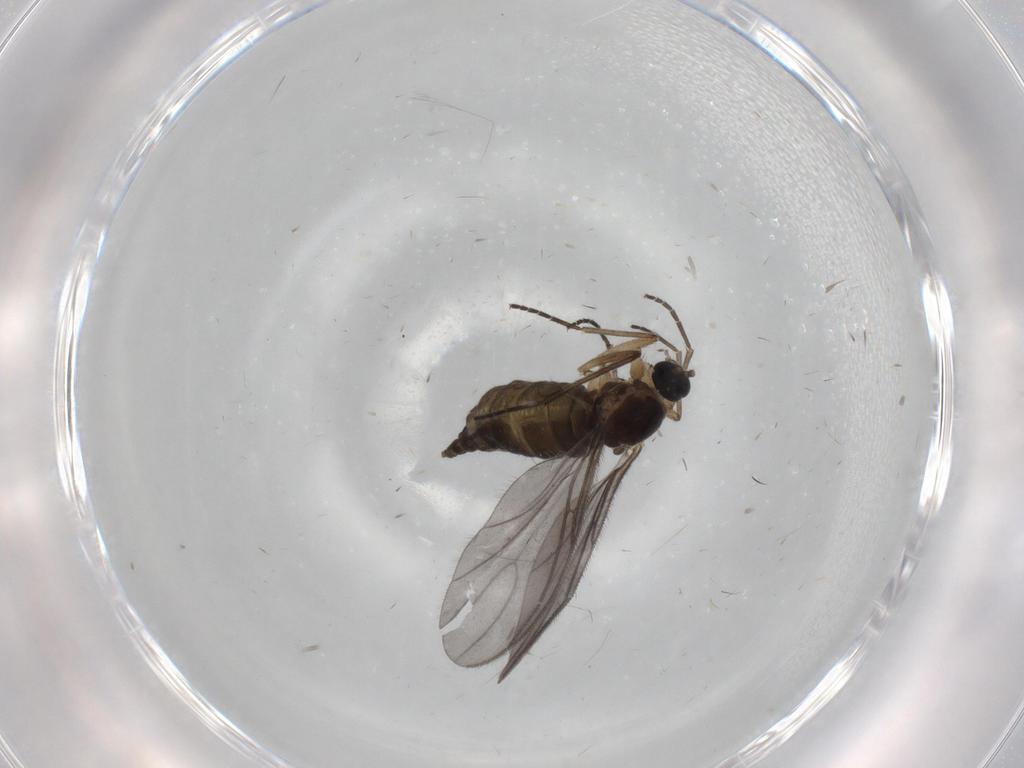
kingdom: Animalia
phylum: Arthropoda
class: Insecta
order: Diptera
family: Sciaridae
